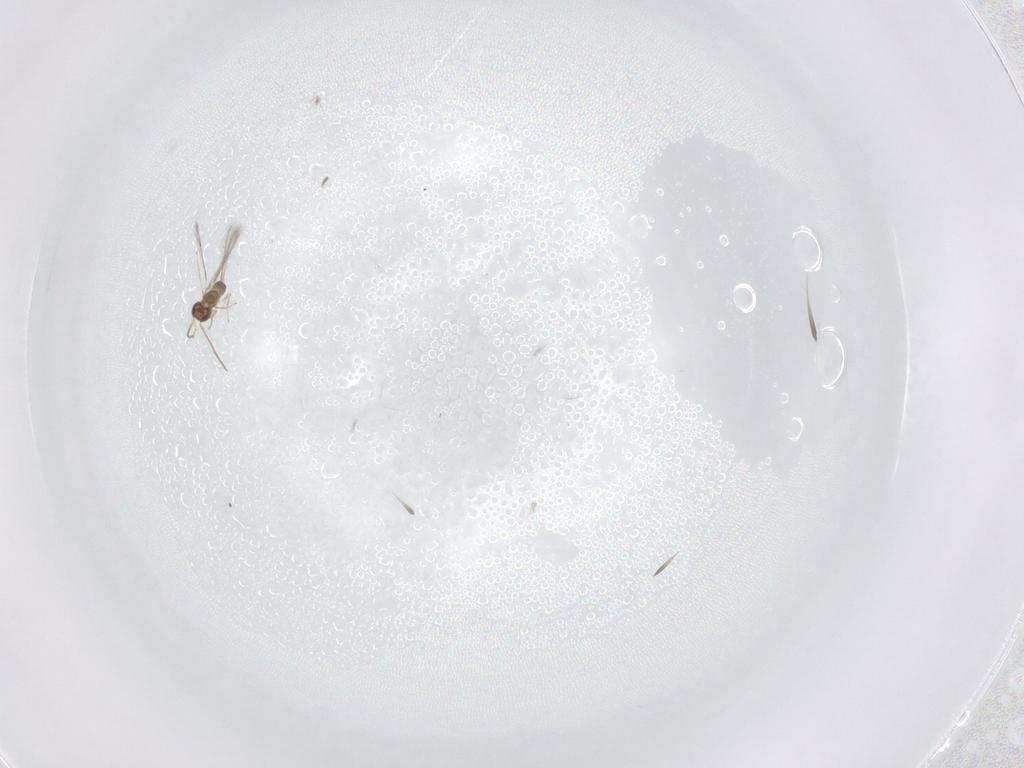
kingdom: Animalia
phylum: Arthropoda
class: Insecta
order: Hymenoptera
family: Mymaridae
